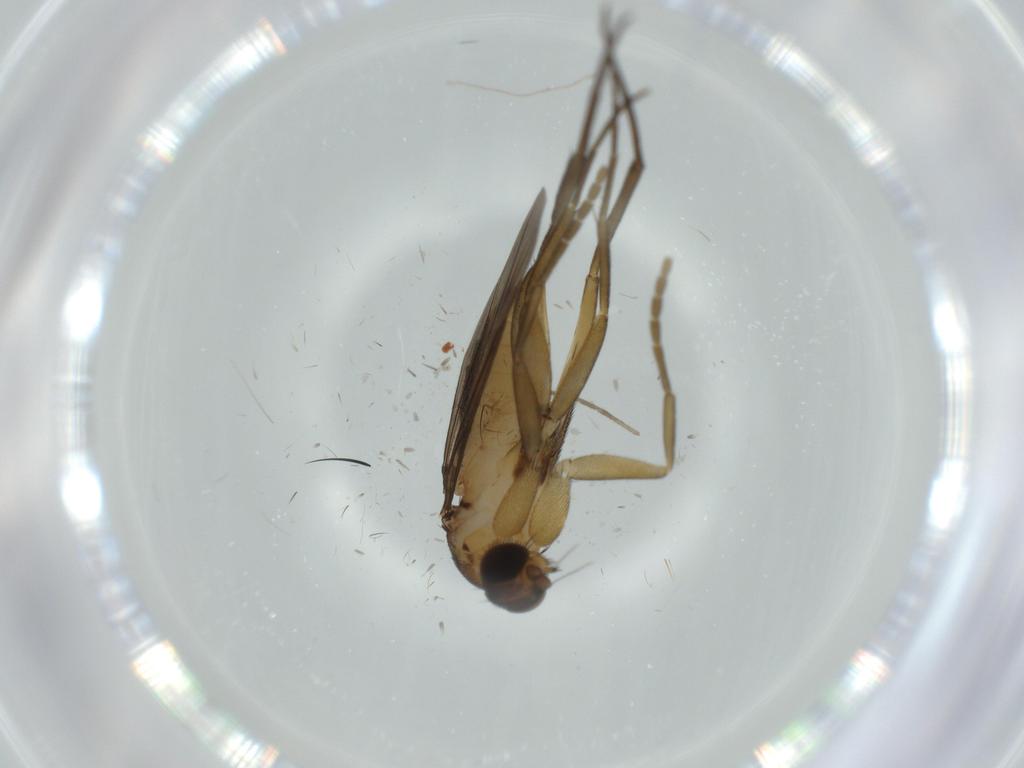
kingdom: Animalia
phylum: Arthropoda
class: Insecta
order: Diptera
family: Phoridae
